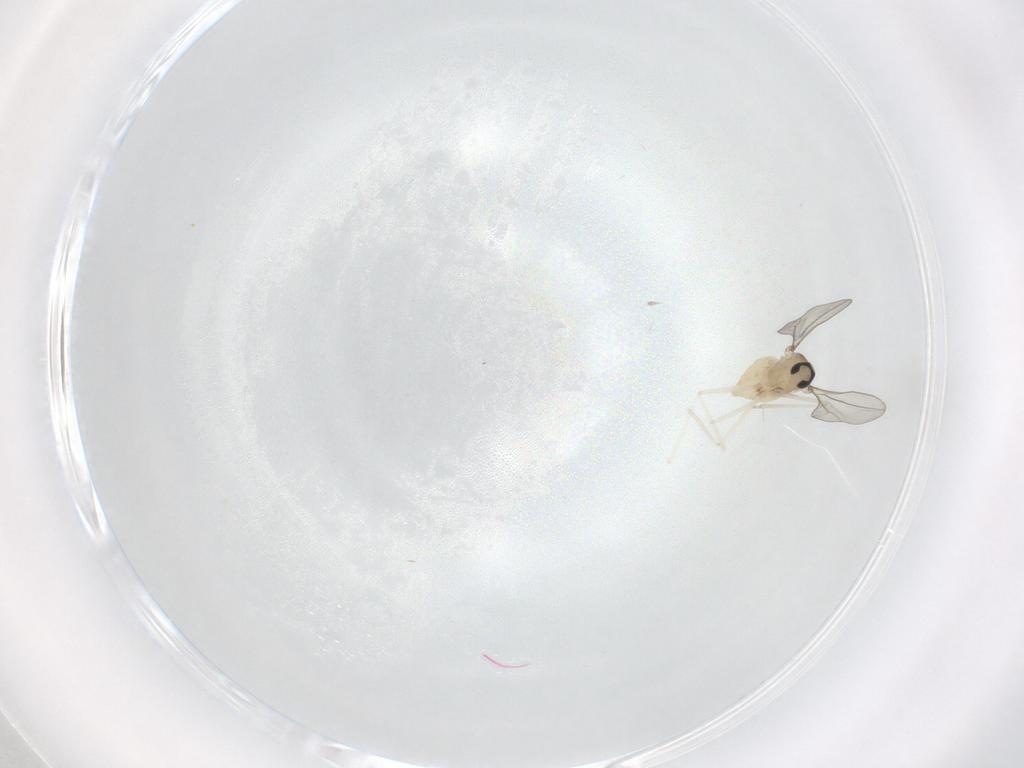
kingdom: Animalia
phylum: Arthropoda
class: Insecta
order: Diptera
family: Cecidomyiidae
